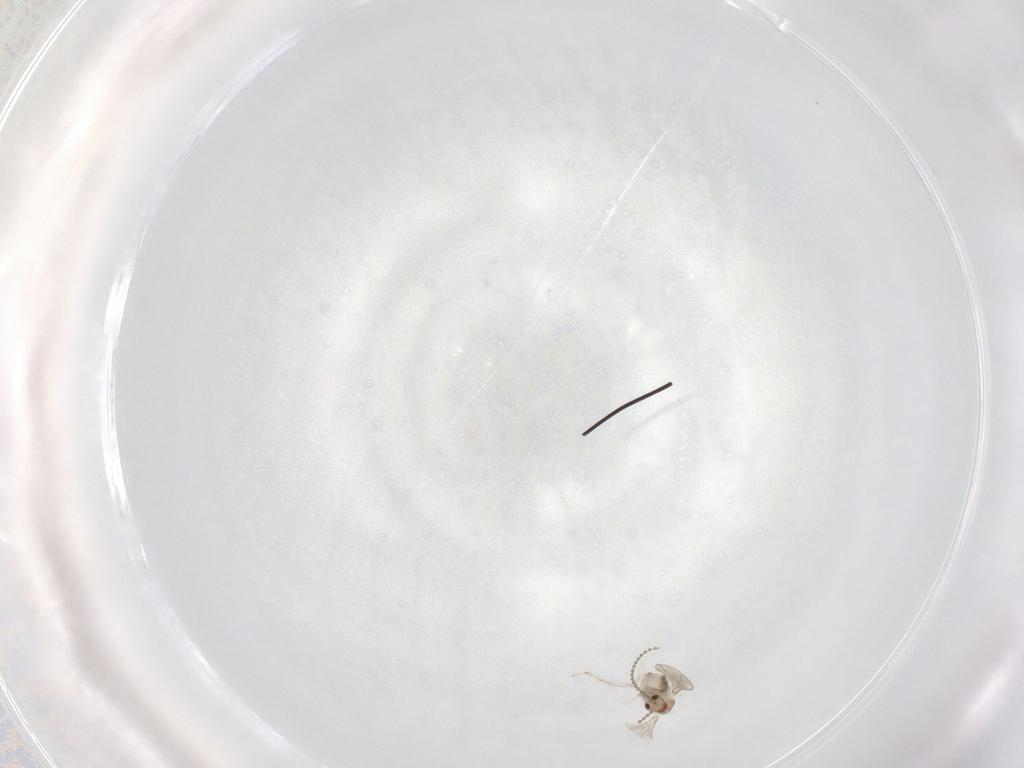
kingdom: Animalia
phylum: Arthropoda
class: Insecta
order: Diptera
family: Cecidomyiidae
